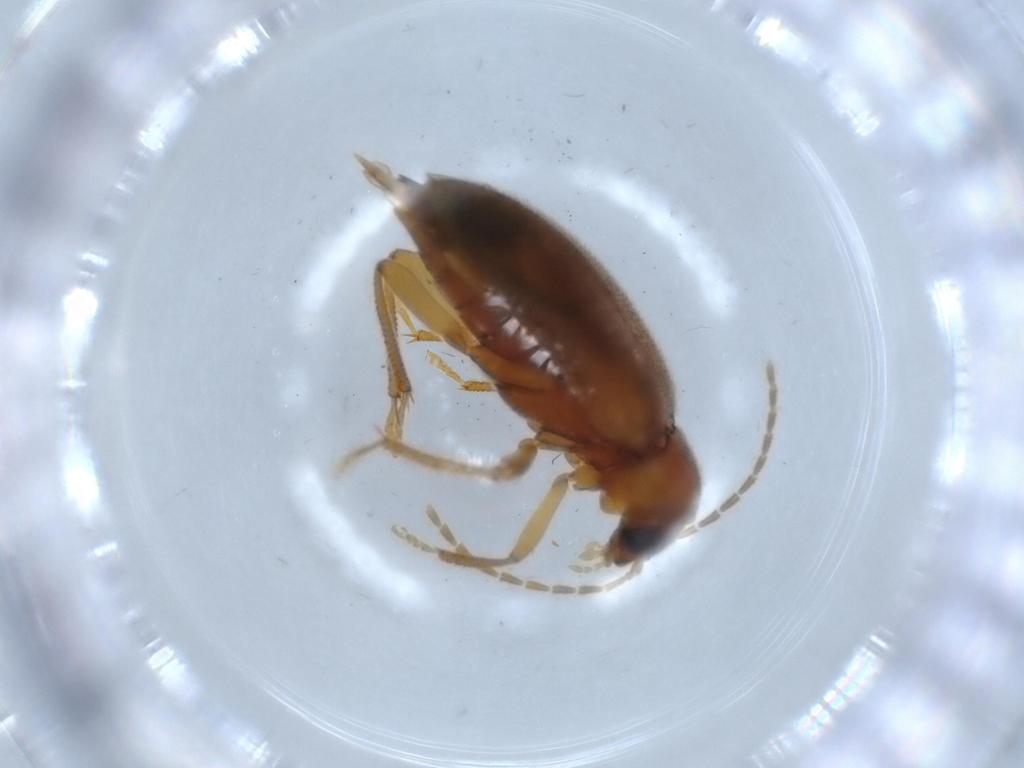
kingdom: Animalia
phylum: Arthropoda
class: Insecta
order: Coleoptera
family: Ptilodactylidae
